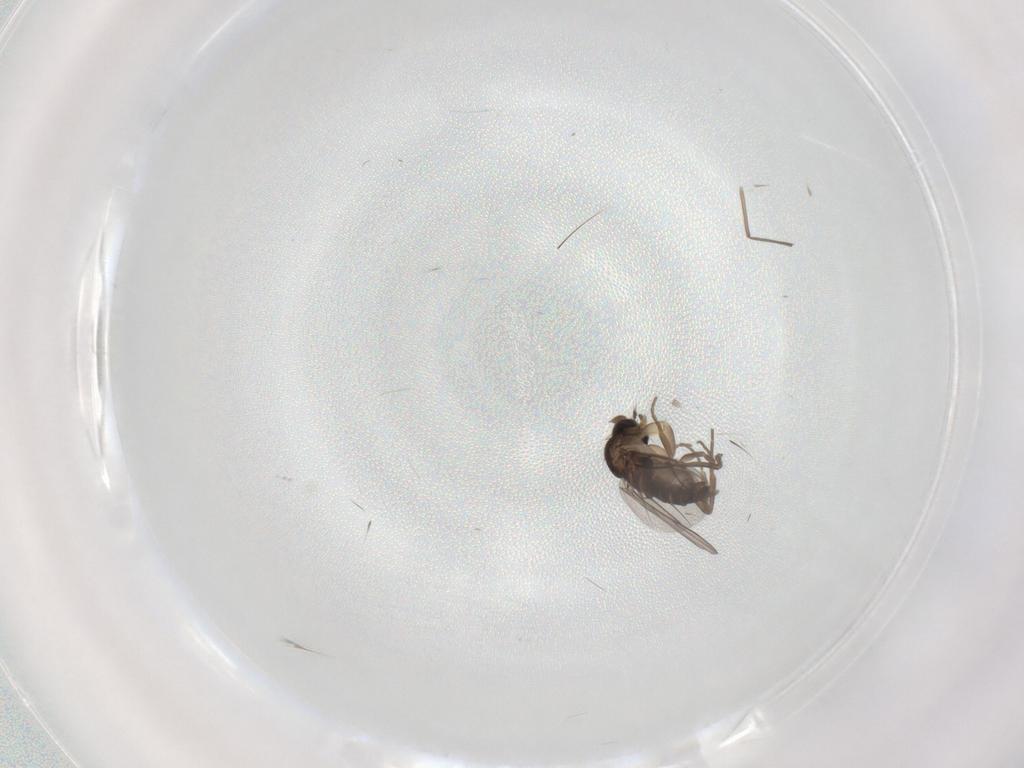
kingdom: Animalia
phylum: Arthropoda
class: Insecta
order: Diptera
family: Phoridae
